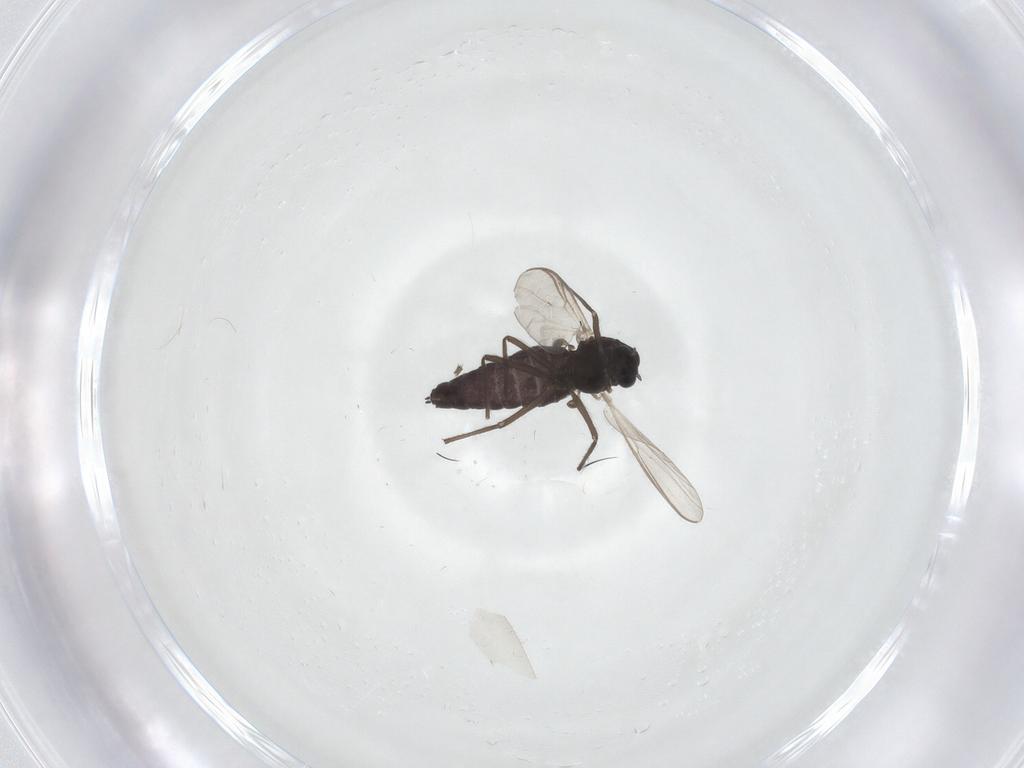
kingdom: Animalia
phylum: Arthropoda
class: Insecta
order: Diptera
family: Chironomidae
